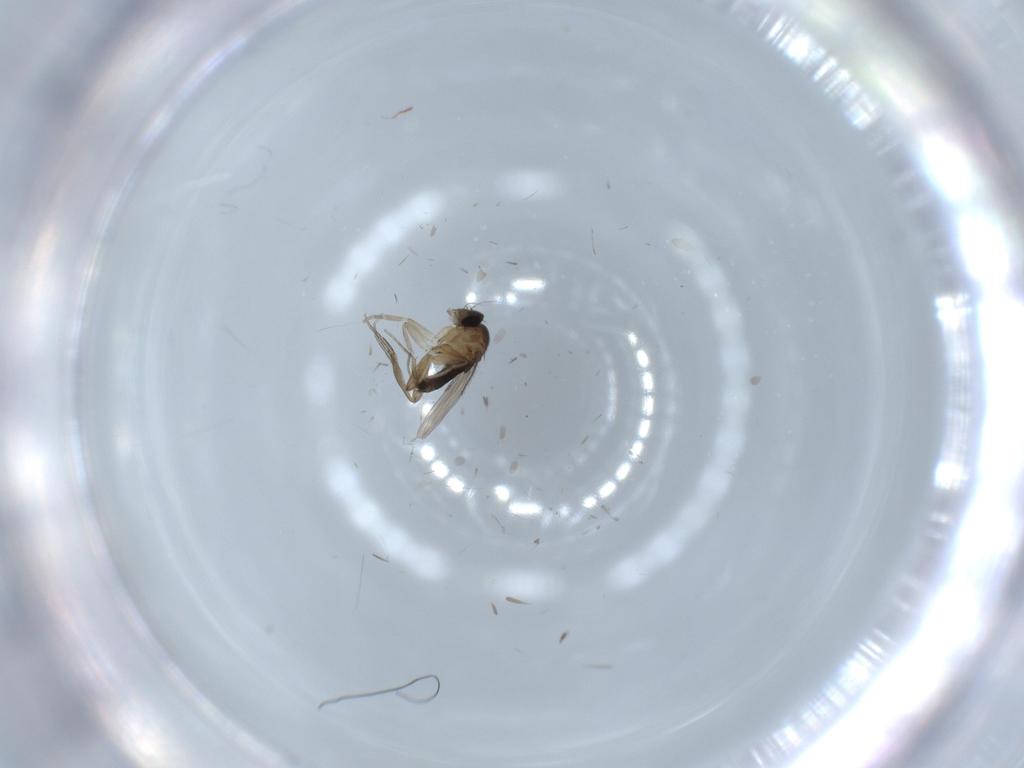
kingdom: Animalia
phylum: Arthropoda
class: Insecta
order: Diptera
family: Phoridae
